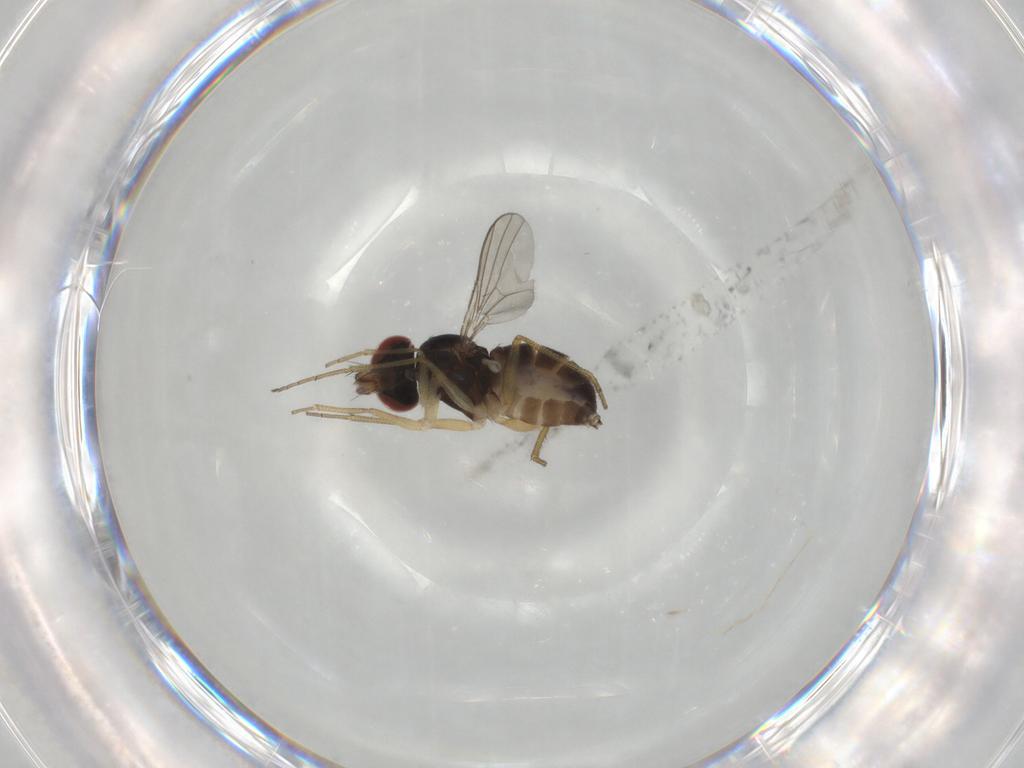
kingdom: Animalia
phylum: Arthropoda
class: Insecta
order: Diptera
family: Dolichopodidae
